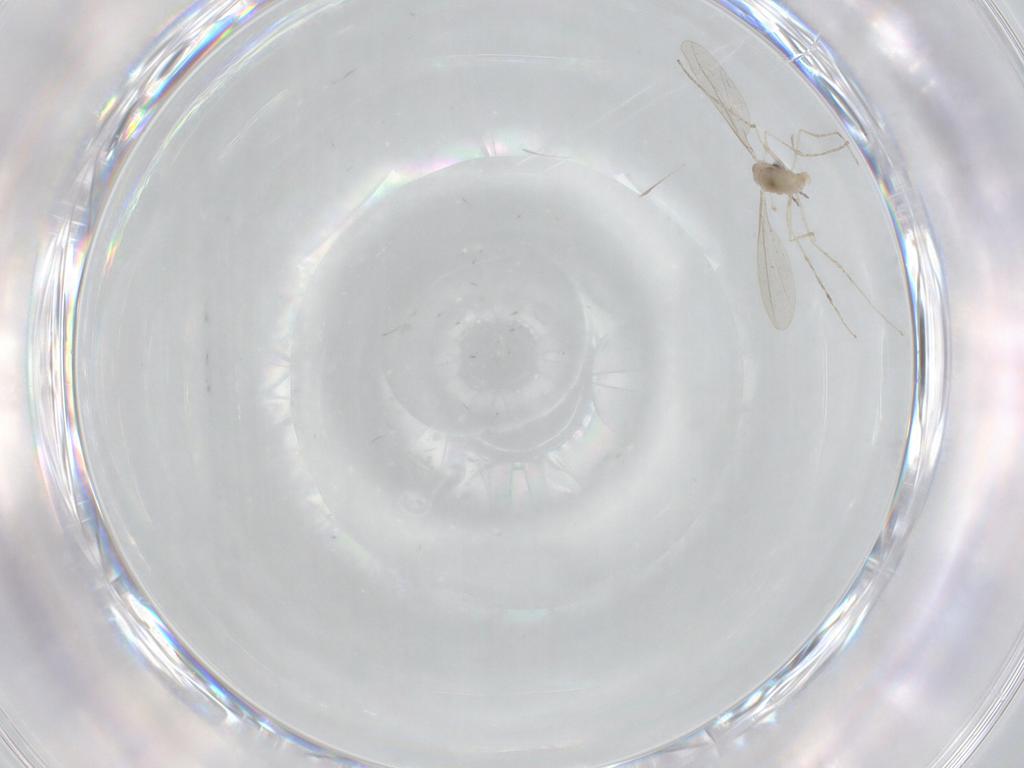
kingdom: Animalia
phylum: Arthropoda
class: Insecta
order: Diptera
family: Cecidomyiidae
